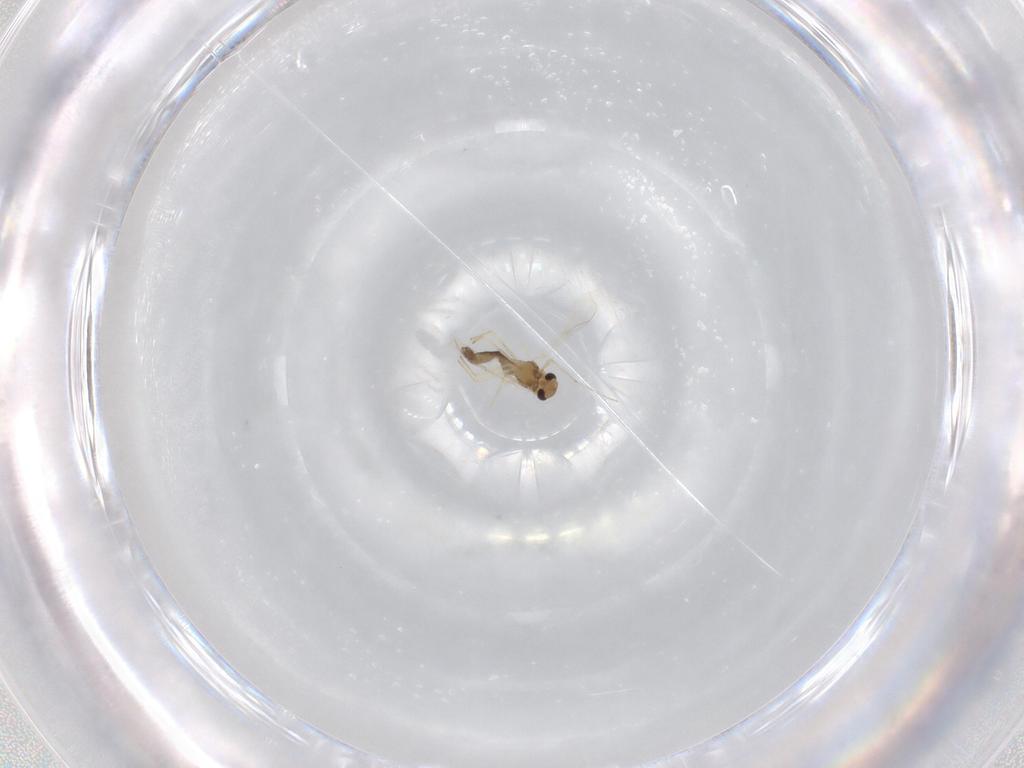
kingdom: Animalia
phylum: Arthropoda
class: Insecta
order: Diptera
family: Chironomidae
